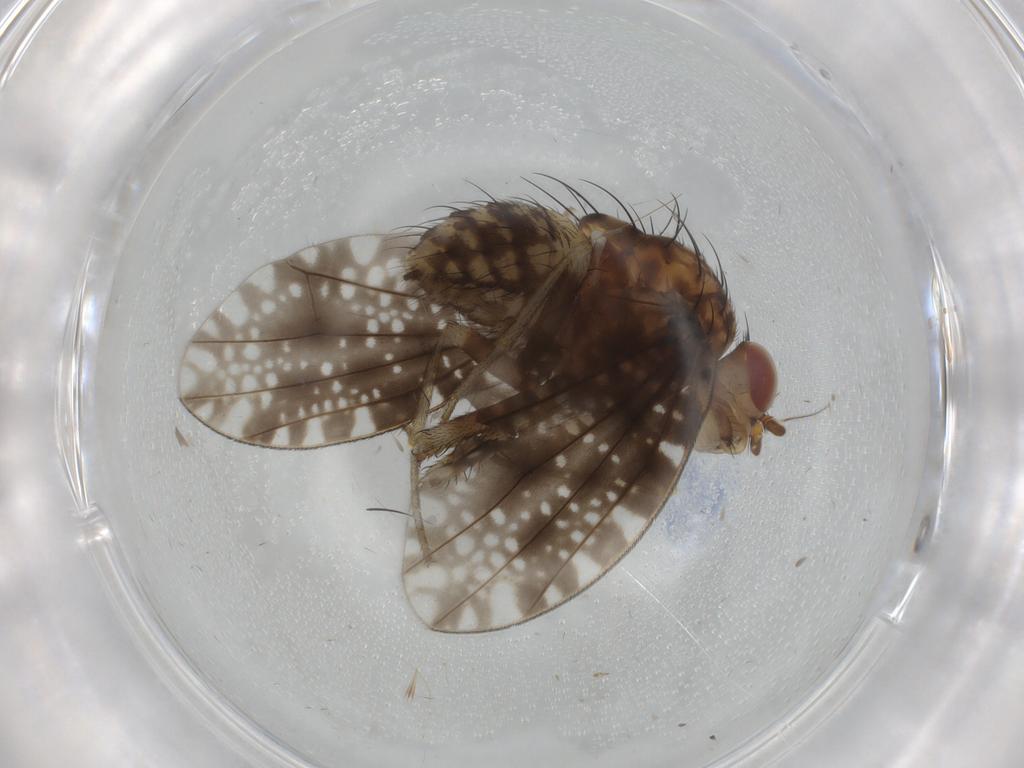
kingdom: Animalia
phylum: Arthropoda
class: Insecta
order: Diptera
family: Lauxaniidae
